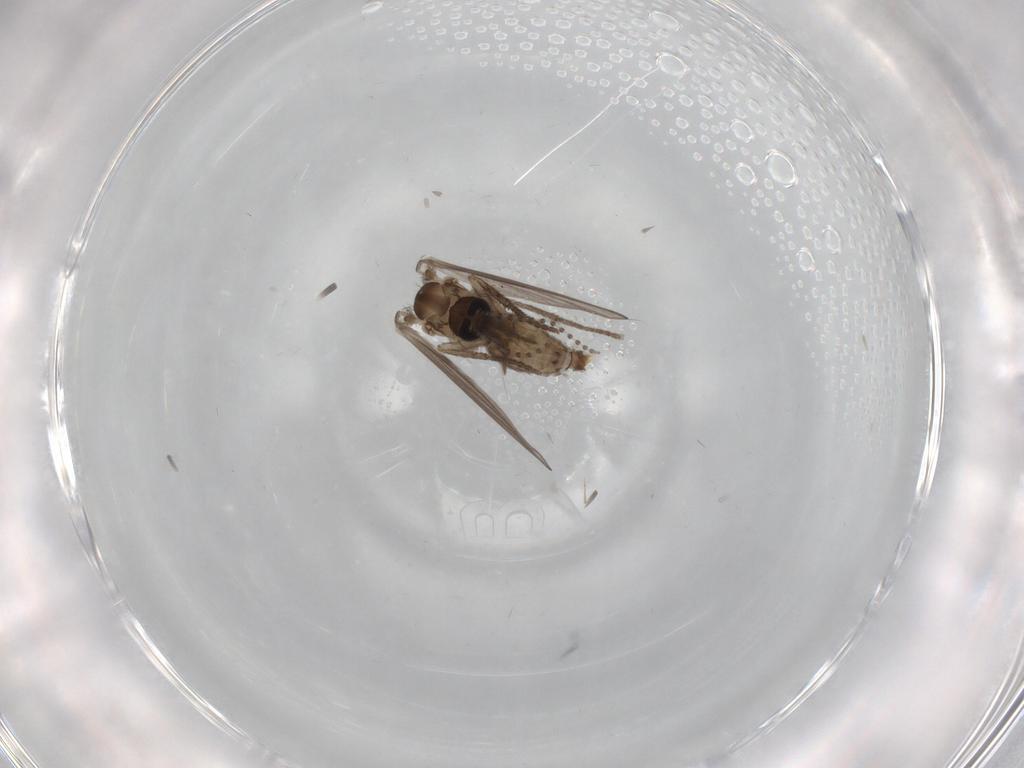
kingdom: Animalia
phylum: Arthropoda
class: Insecta
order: Diptera
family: Psychodidae
